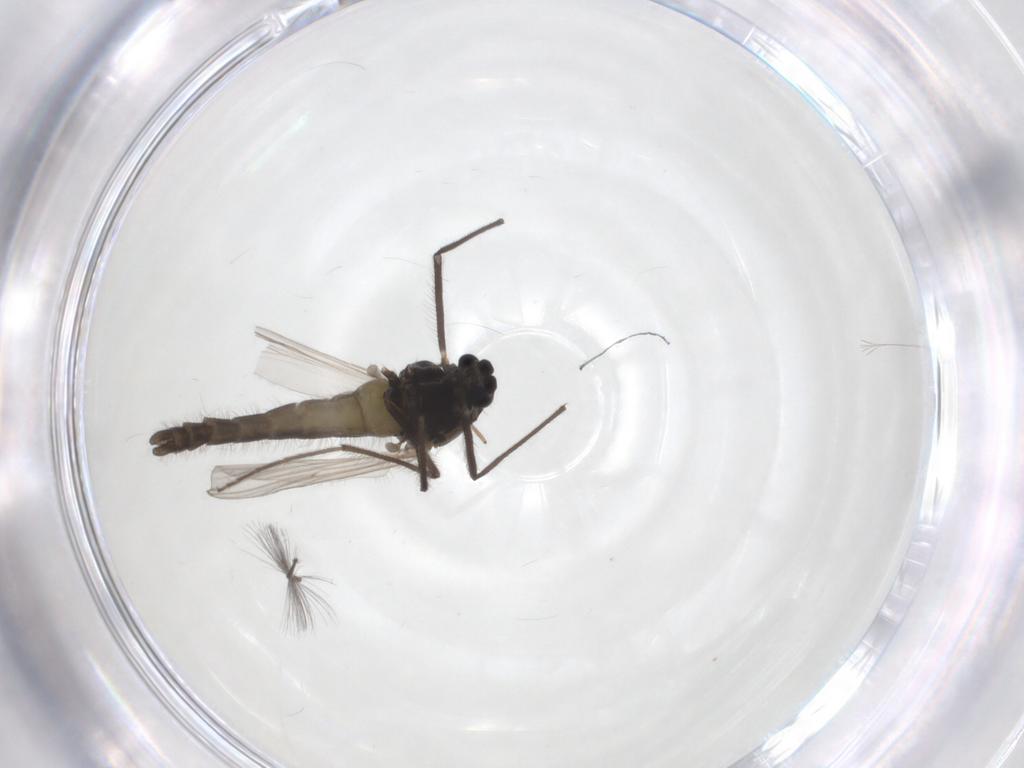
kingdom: Animalia
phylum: Arthropoda
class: Insecta
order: Diptera
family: Chironomidae
